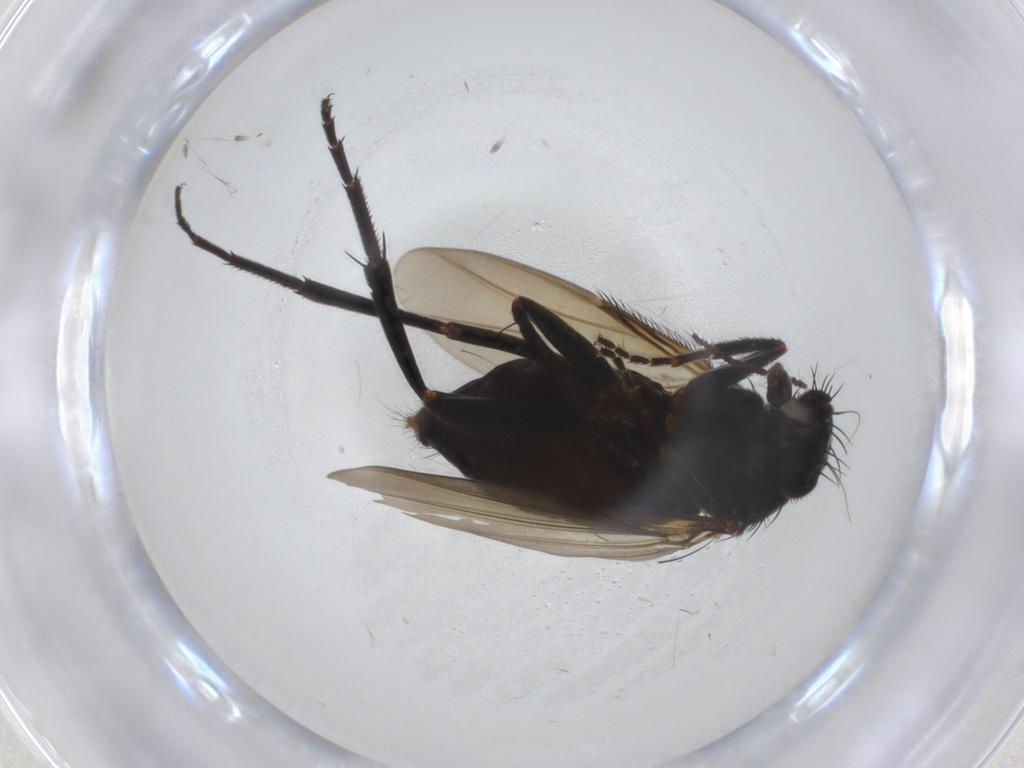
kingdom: Animalia
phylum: Arthropoda
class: Insecta
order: Diptera
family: Phoridae
